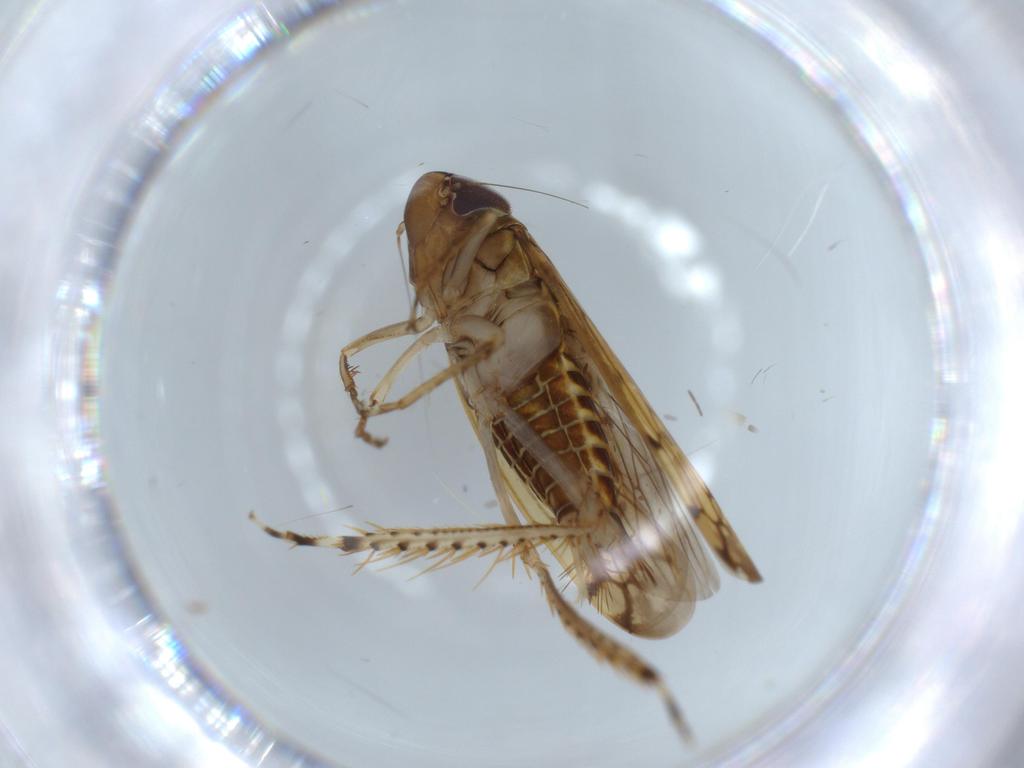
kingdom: Animalia
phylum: Arthropoda
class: Insecta
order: Hemiptera
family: Cicadellidae
